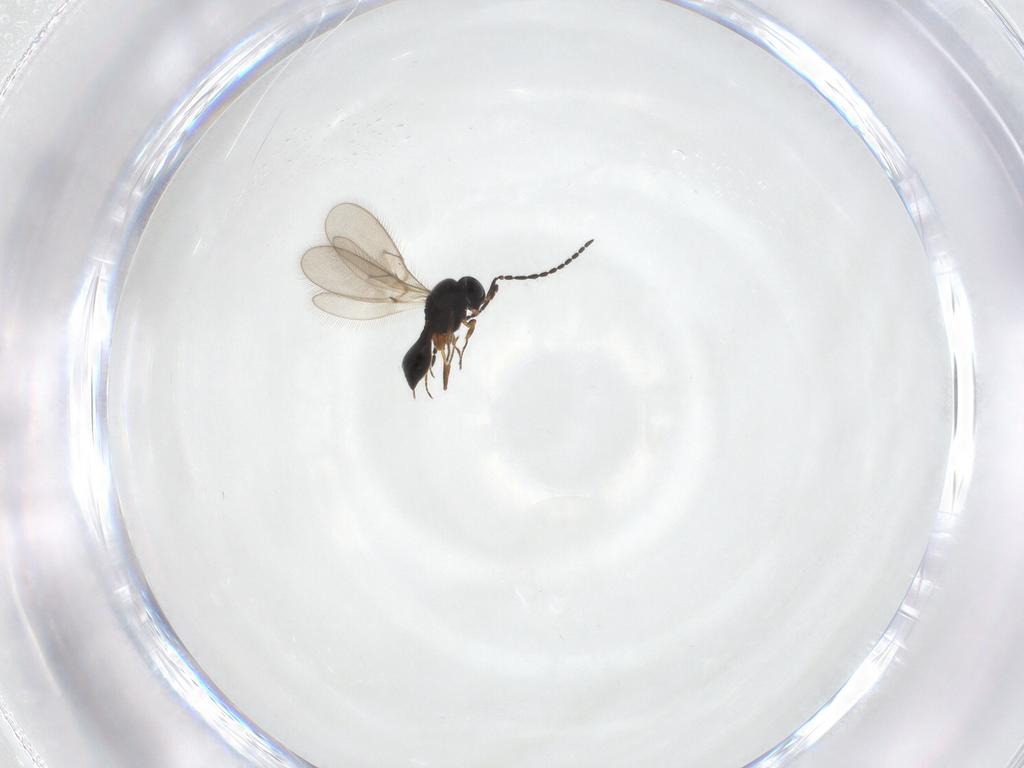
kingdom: Animalia
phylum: Arthropoda
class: Insecta
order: Hymenoptera
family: Scelionidae
